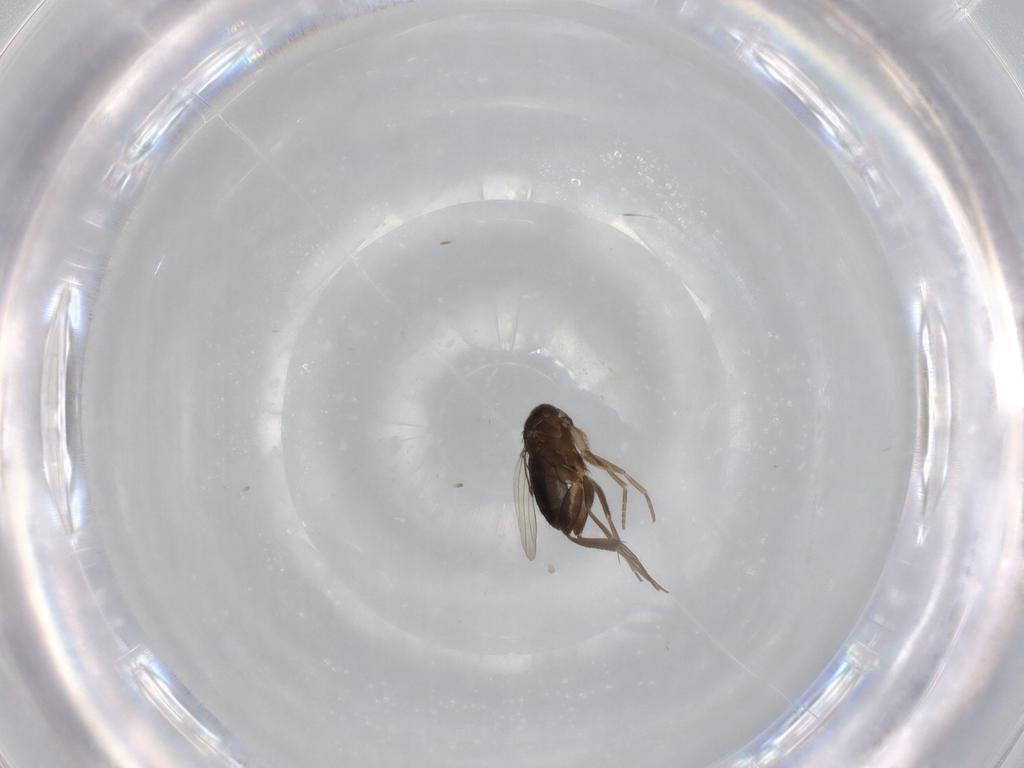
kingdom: Animalia
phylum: Arthropoda
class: Insecta
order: Diptera
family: Phoridae
